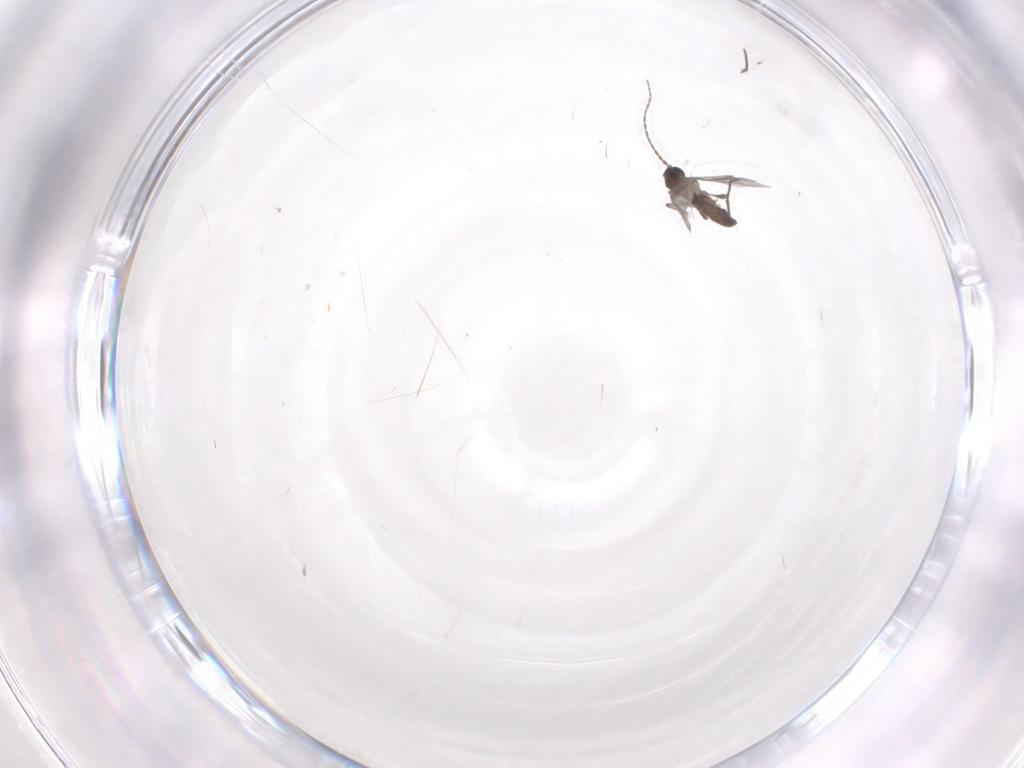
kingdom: Animalia
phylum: Arthropoda
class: Insecta
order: Diptera
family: Sciaridae
